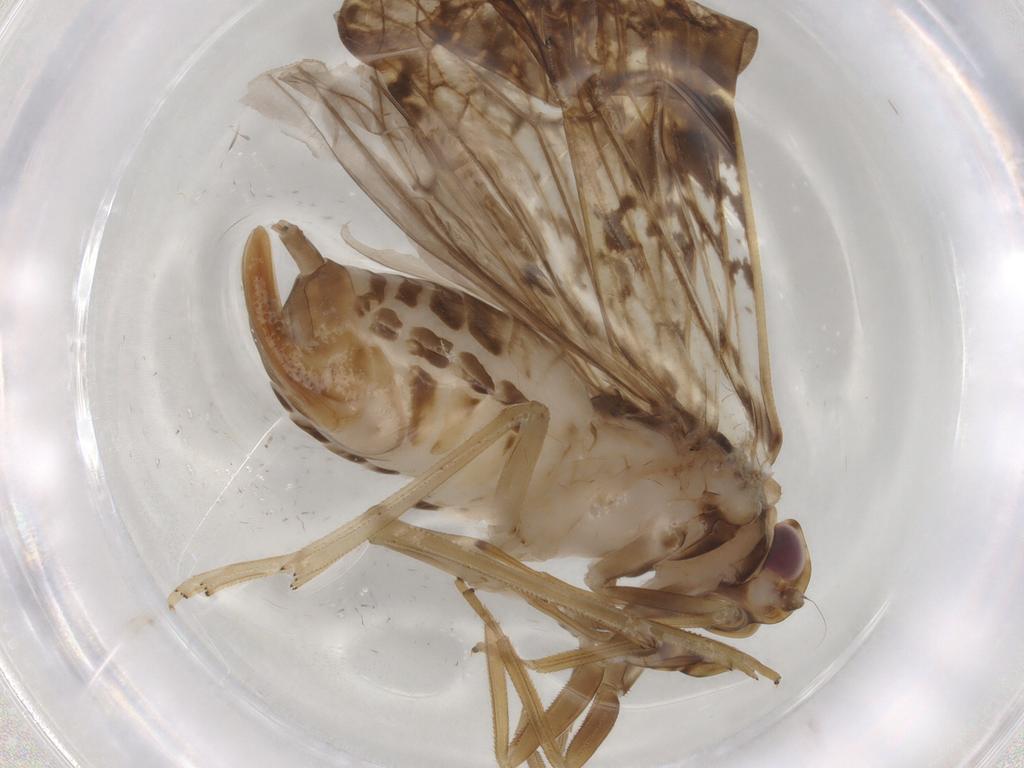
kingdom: Animalia
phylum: Arthropoda
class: Insecta
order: Hemiptera
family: Cixiidae
